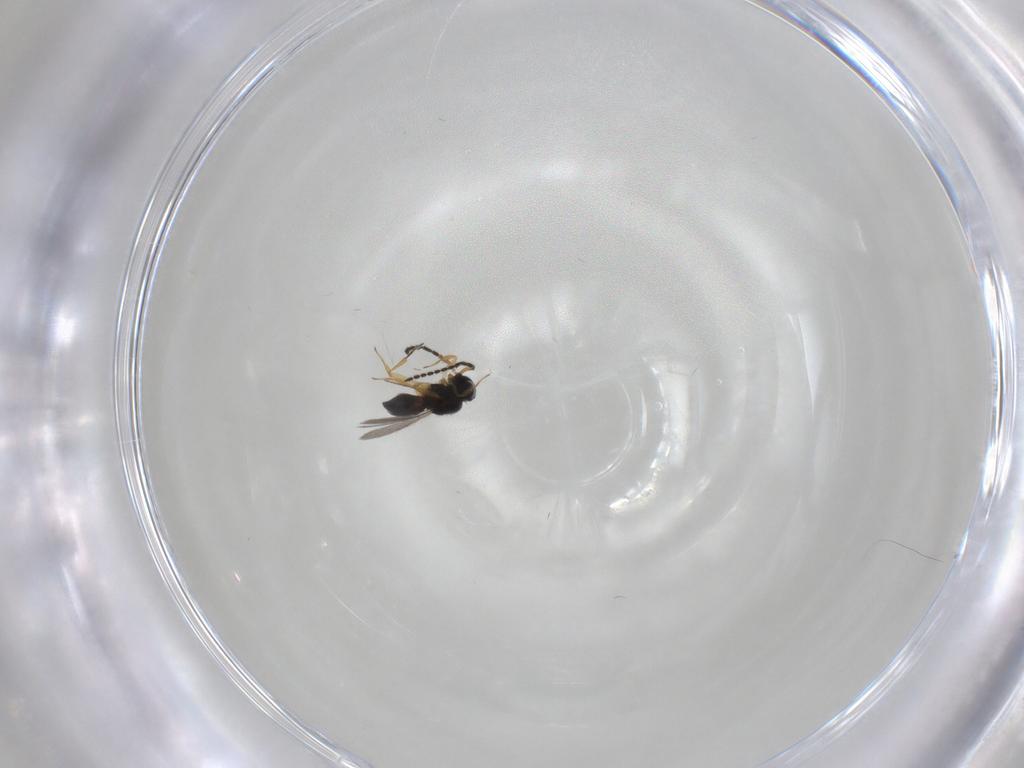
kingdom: Animalia
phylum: Arthropoda
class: Insecta
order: Hymenoptera
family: Scelionidae
